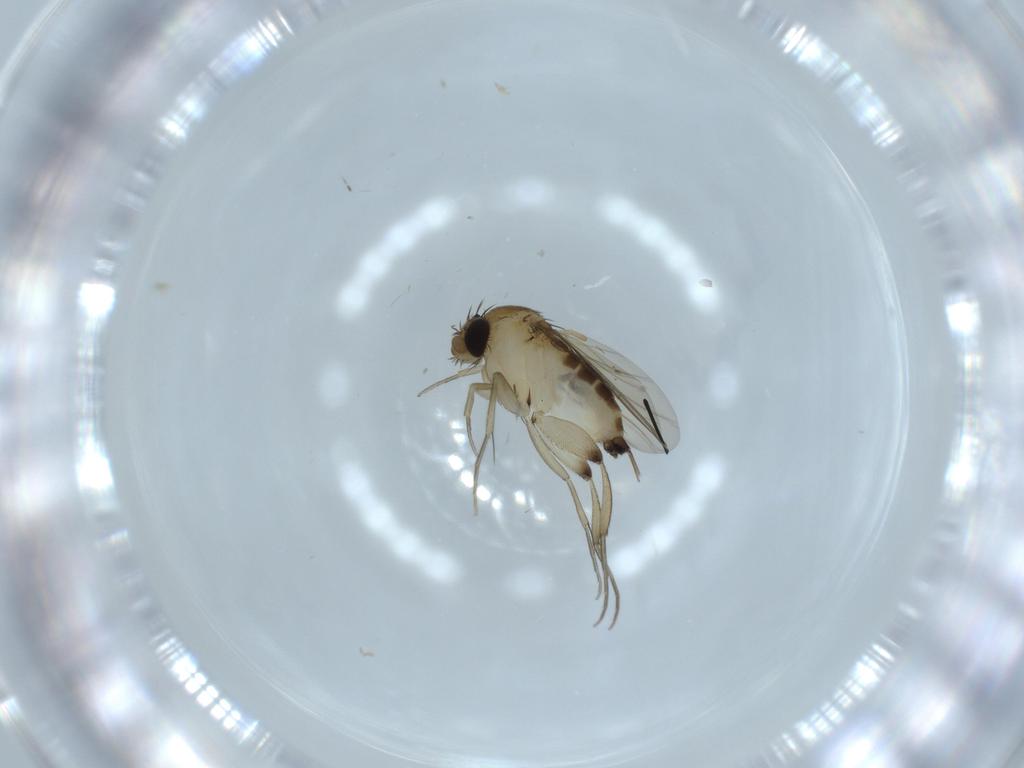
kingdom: Animalia
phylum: Arthropoda
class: Insecta
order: Diptera
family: Phoridae
